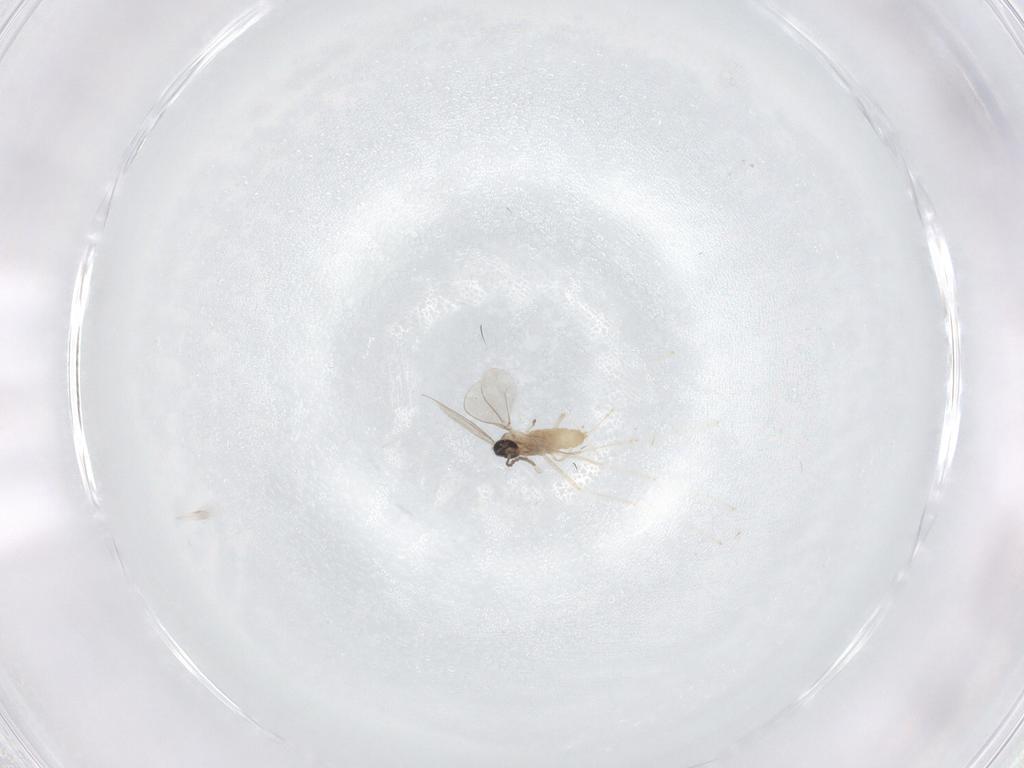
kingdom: Animalia
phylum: Arthropoda
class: Insecta
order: Diptera
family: Cecidomyiidae
